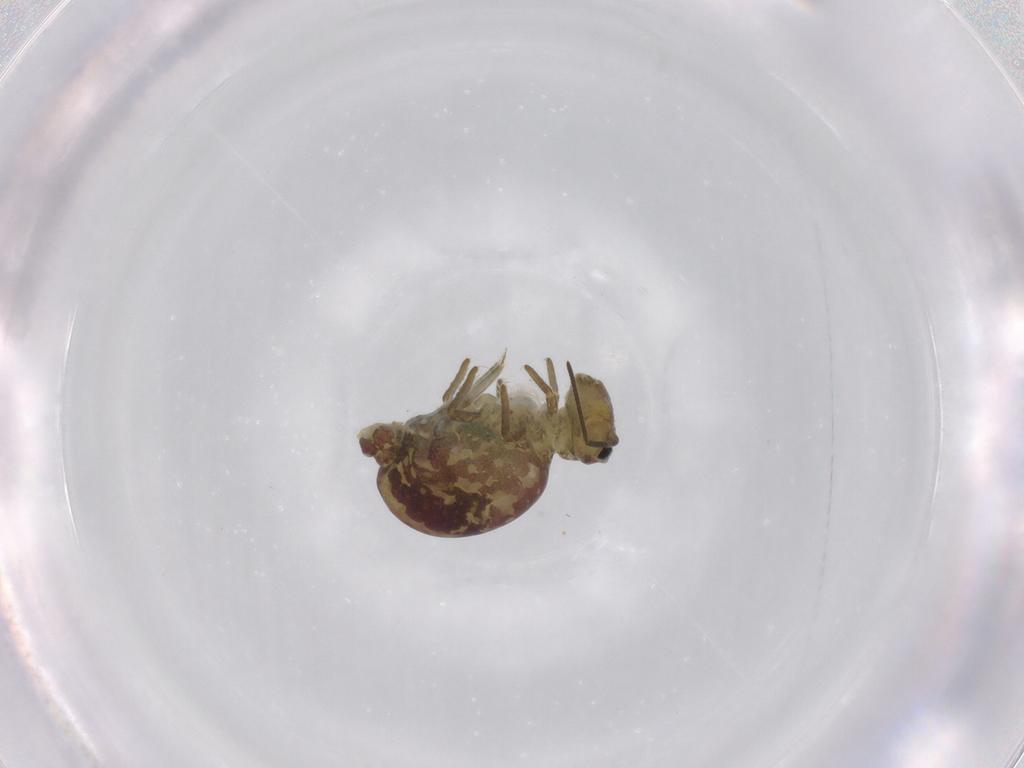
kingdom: Animalia
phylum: Arthropoda
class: Collembola
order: Symphypleona
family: Sminthuridae
